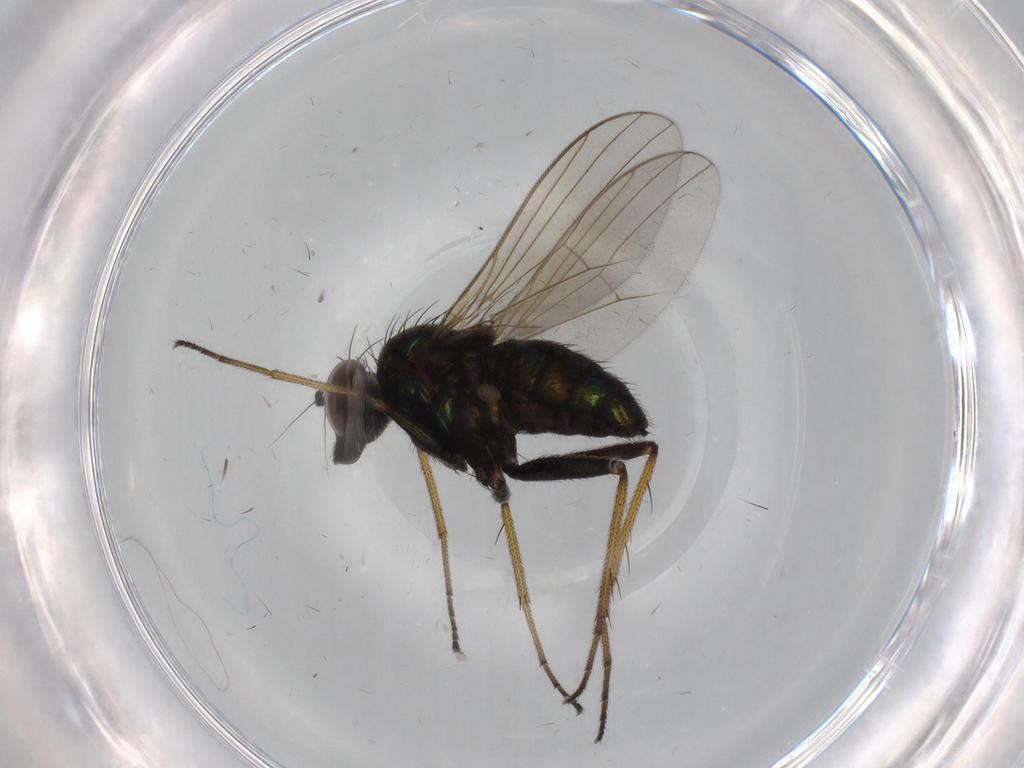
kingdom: Animalia
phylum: Arthropoda
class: Insecta
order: Diptera
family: Dolichopodidae
